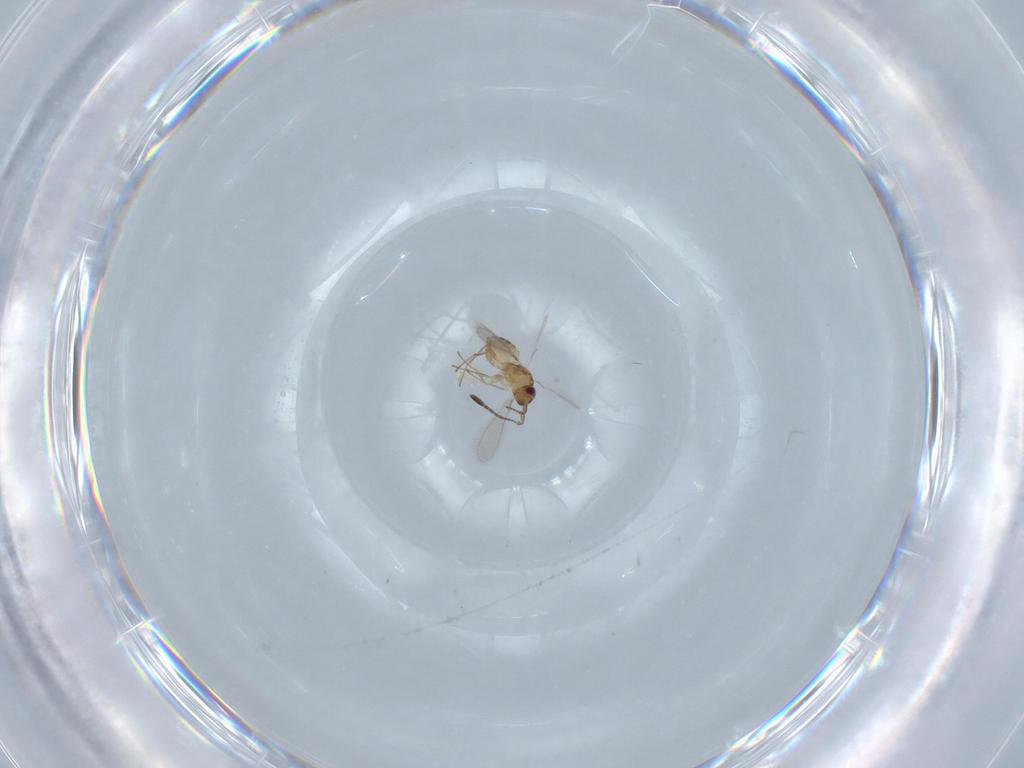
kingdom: Animalia
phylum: Arthropoda
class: Insecta
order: Hymenoptera
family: Mymaridae
